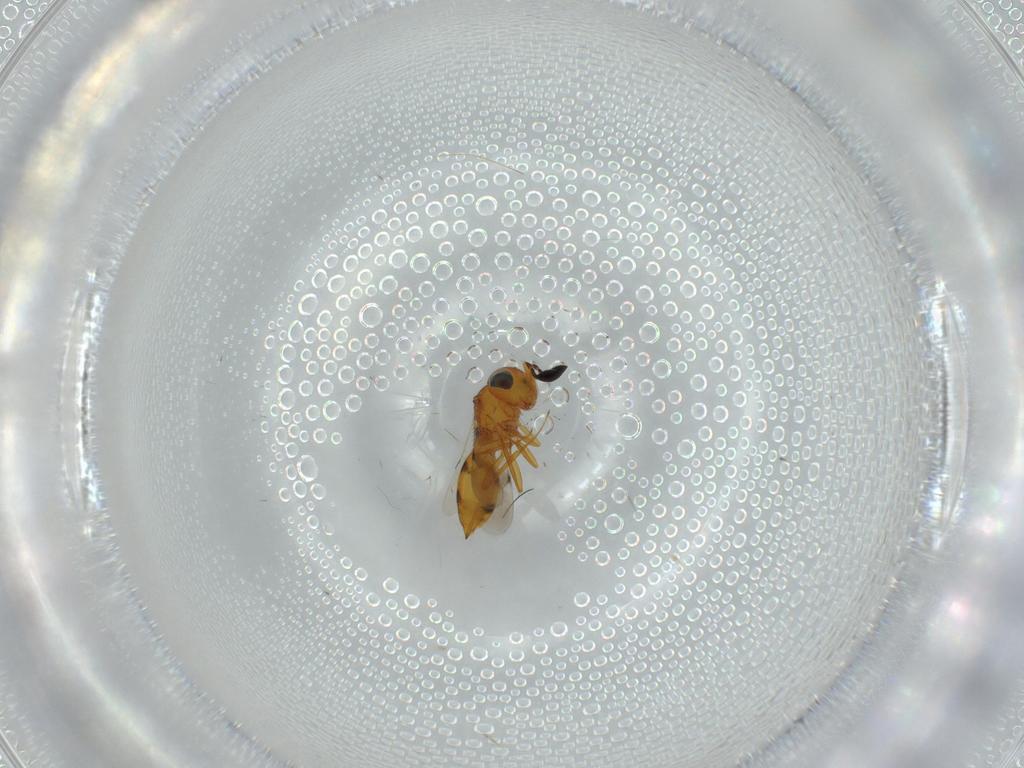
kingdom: Animalia
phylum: Arthropoda
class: Insecta
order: Hymenoptera
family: Scelionidae
